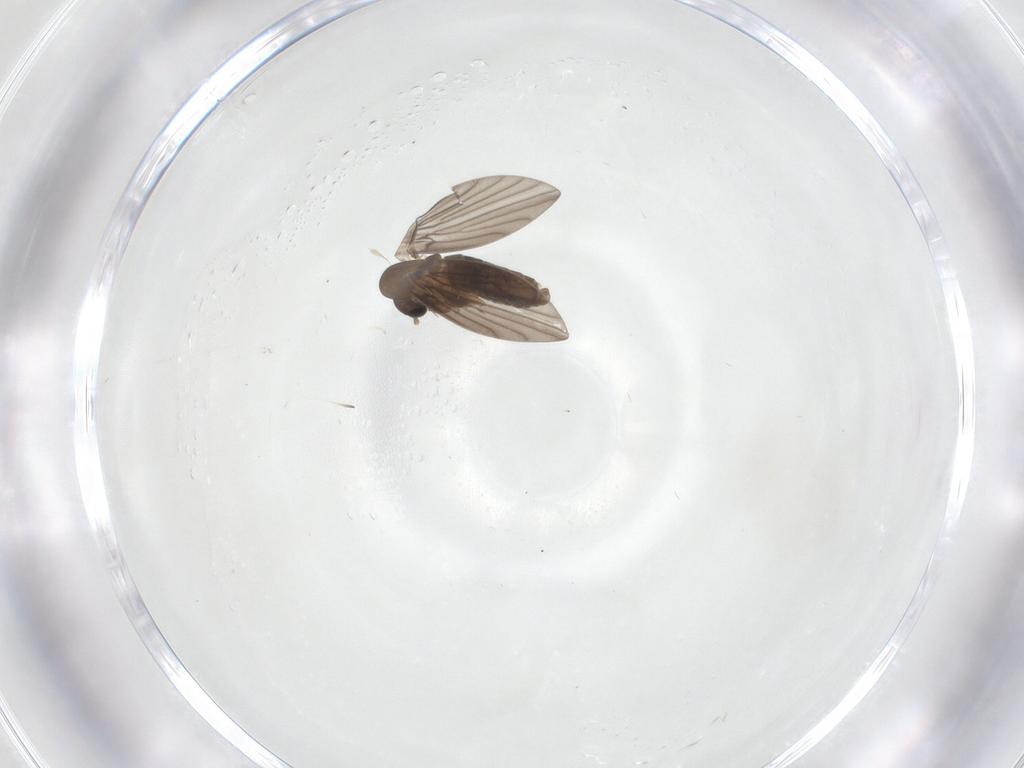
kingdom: Animalia
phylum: Arthropoda
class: Insecta
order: Diptera
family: Psychodidae
